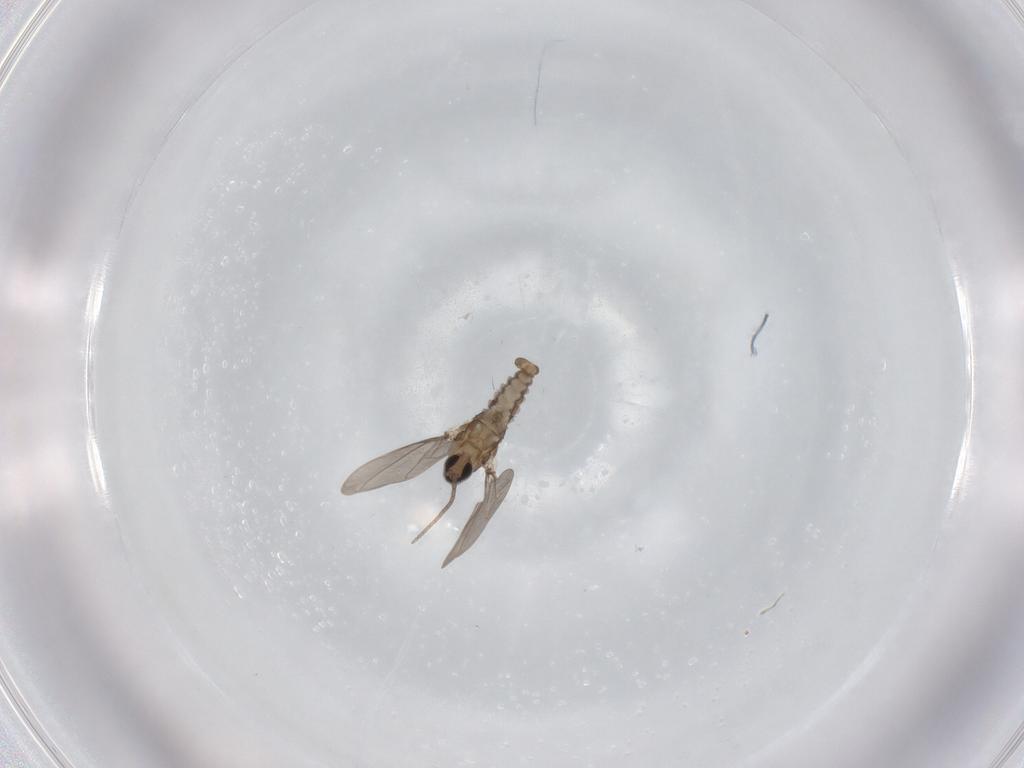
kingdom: Animalia
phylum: Arthropoda
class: Insecta
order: Diptera
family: Cecidomyiidae
